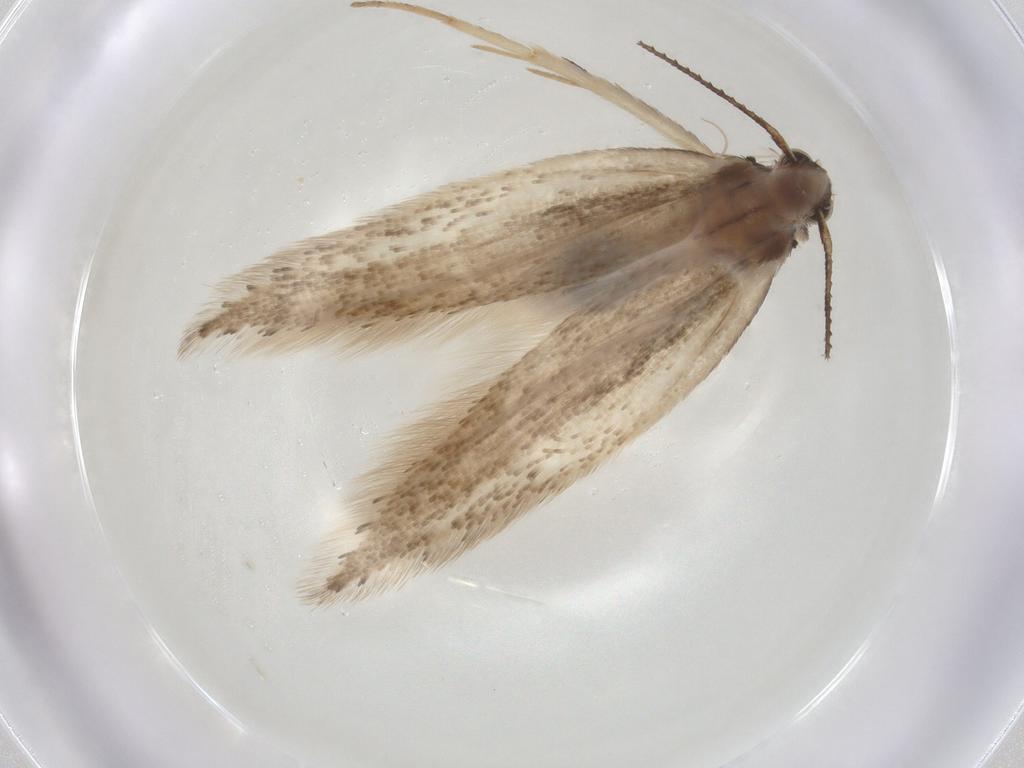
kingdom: Animalia
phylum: Arthropoda
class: Insecta
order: Lepidoptera
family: Gelechiidae
